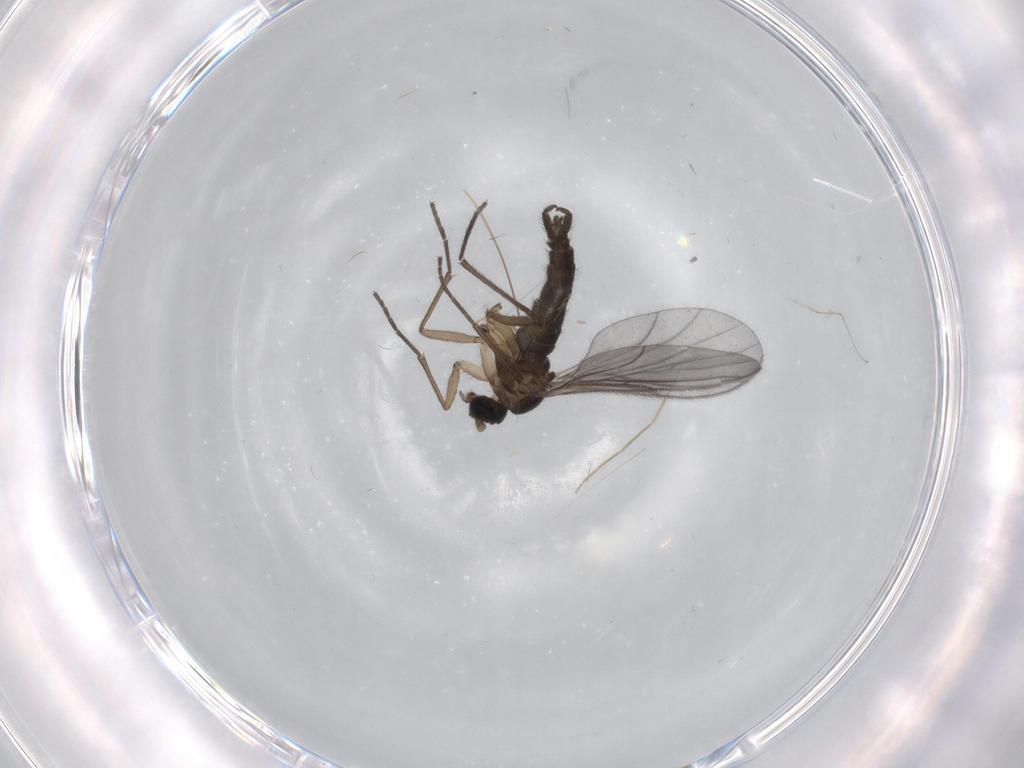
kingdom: Animalia
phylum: Arthropoda
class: Insecta
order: Diptera
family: Sciaridae
